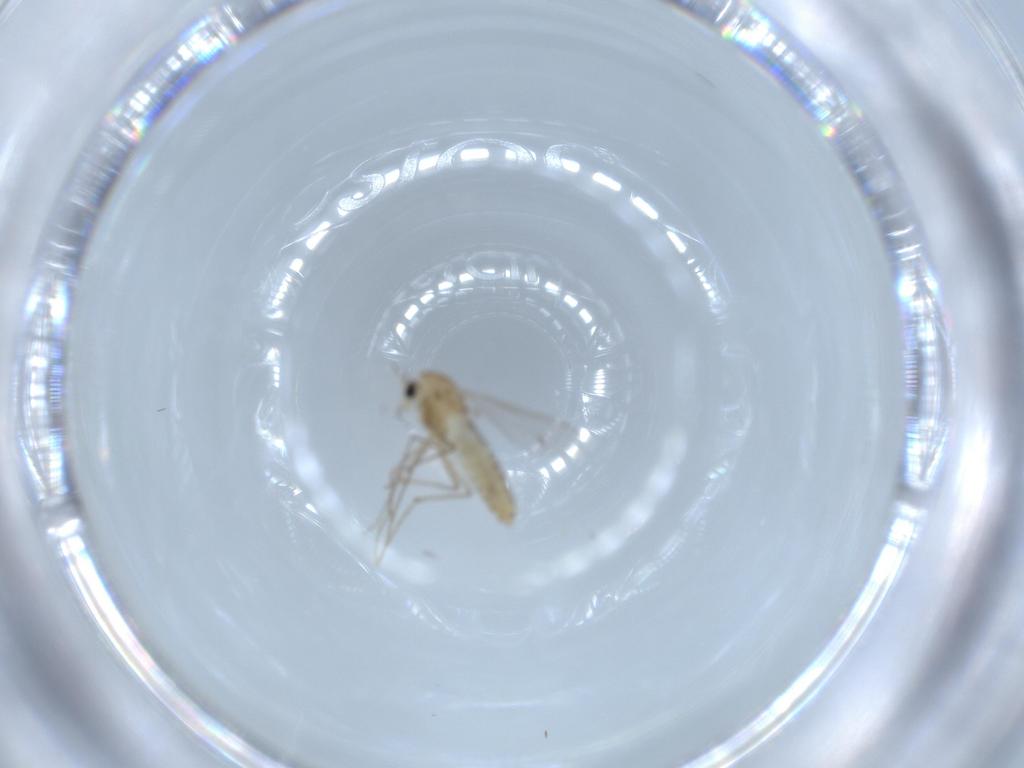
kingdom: Animalia
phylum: Arthropoda
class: Insecta
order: Diptera
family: Chironomidae
